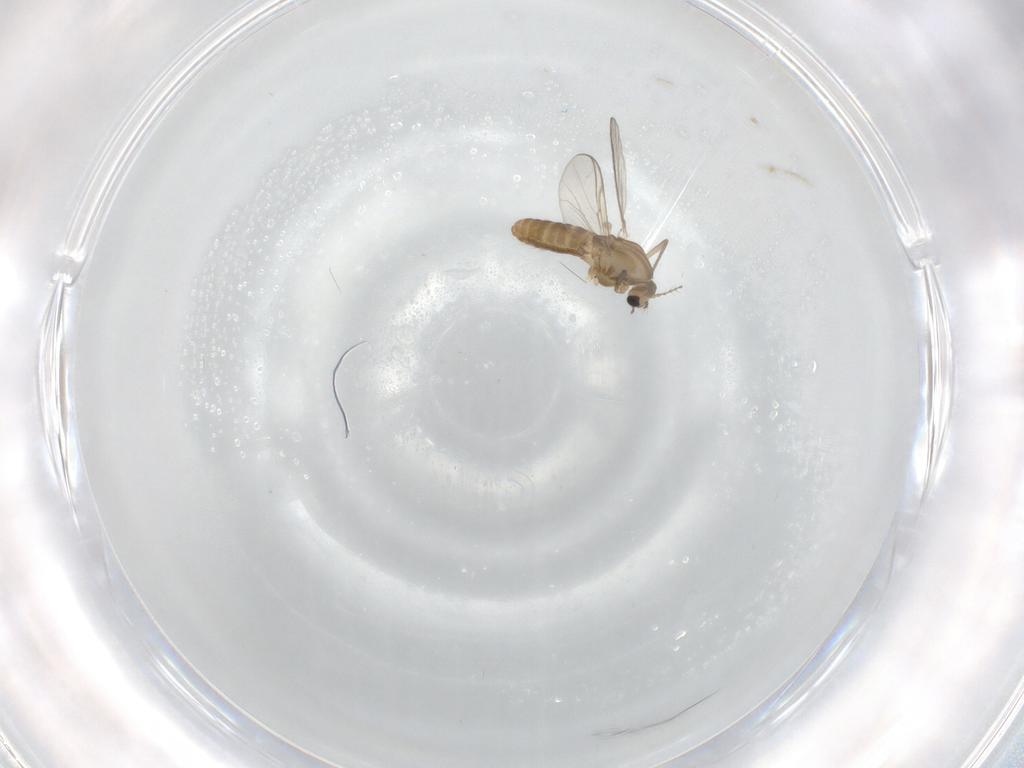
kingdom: Animalia
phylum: Arthropoda
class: Insecta
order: Diptera
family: Chironomidae
